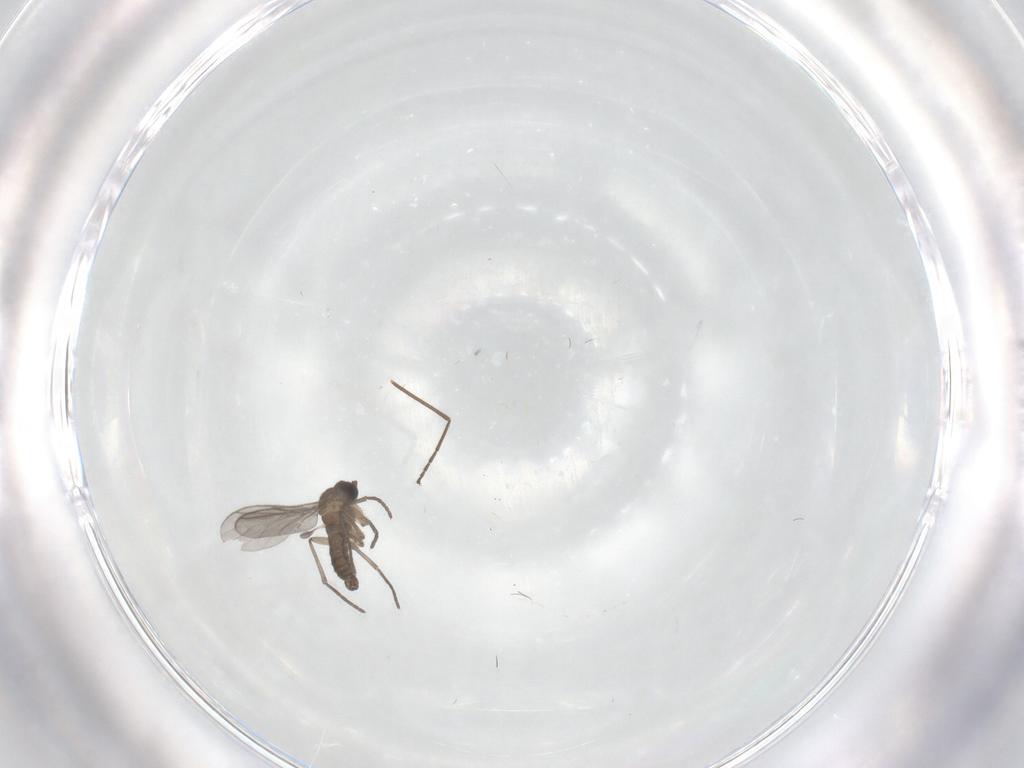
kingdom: Animalia
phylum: Arthropoda
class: Insecta
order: Diptera
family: Sciaridae
